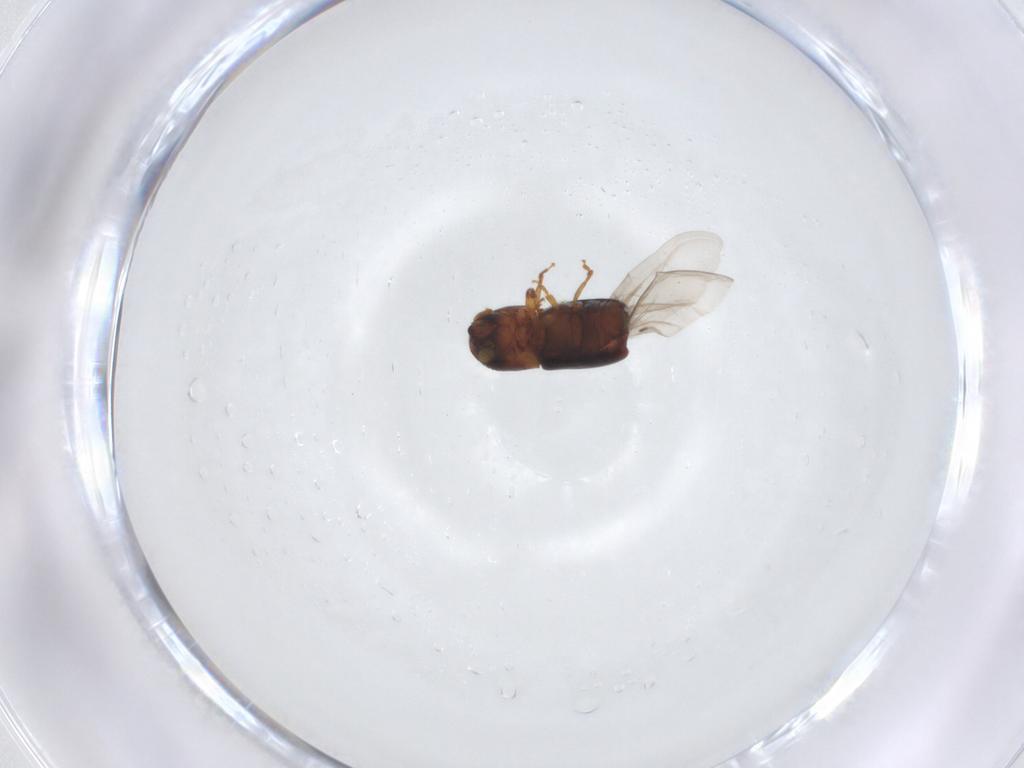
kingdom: Animalia
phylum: Arthropoda
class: Insecta
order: Coleoptera
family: Curculionidae
